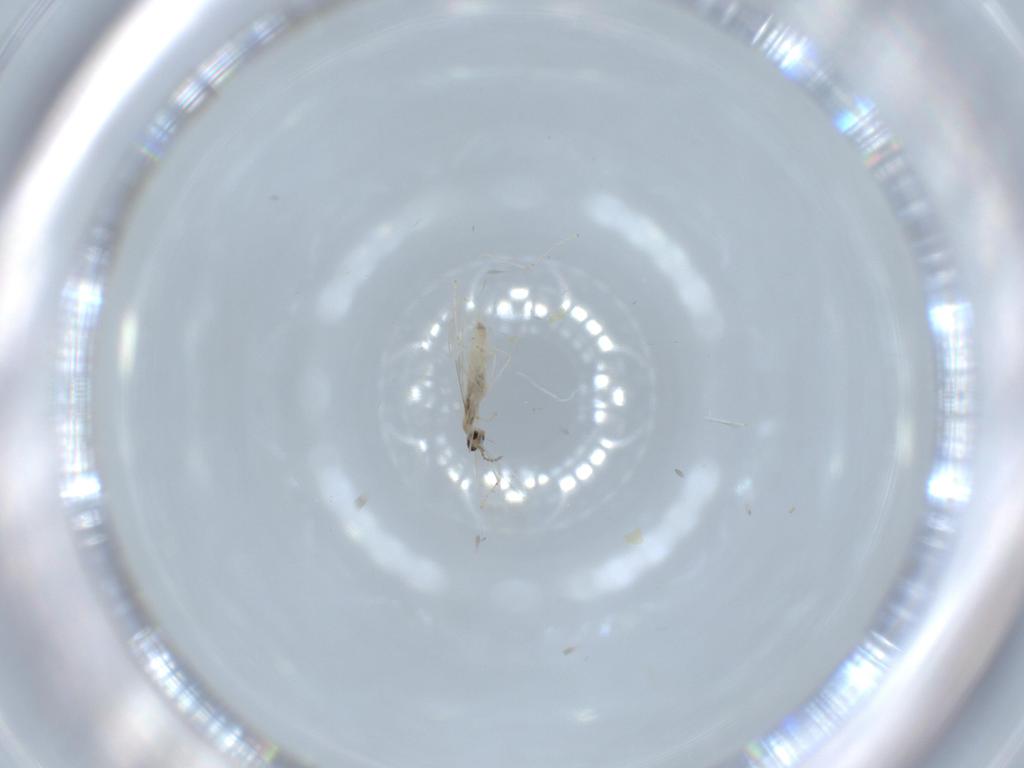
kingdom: Animalia
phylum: Arthropoda
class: Insecta
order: Diptera
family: Cecidomyiidae
